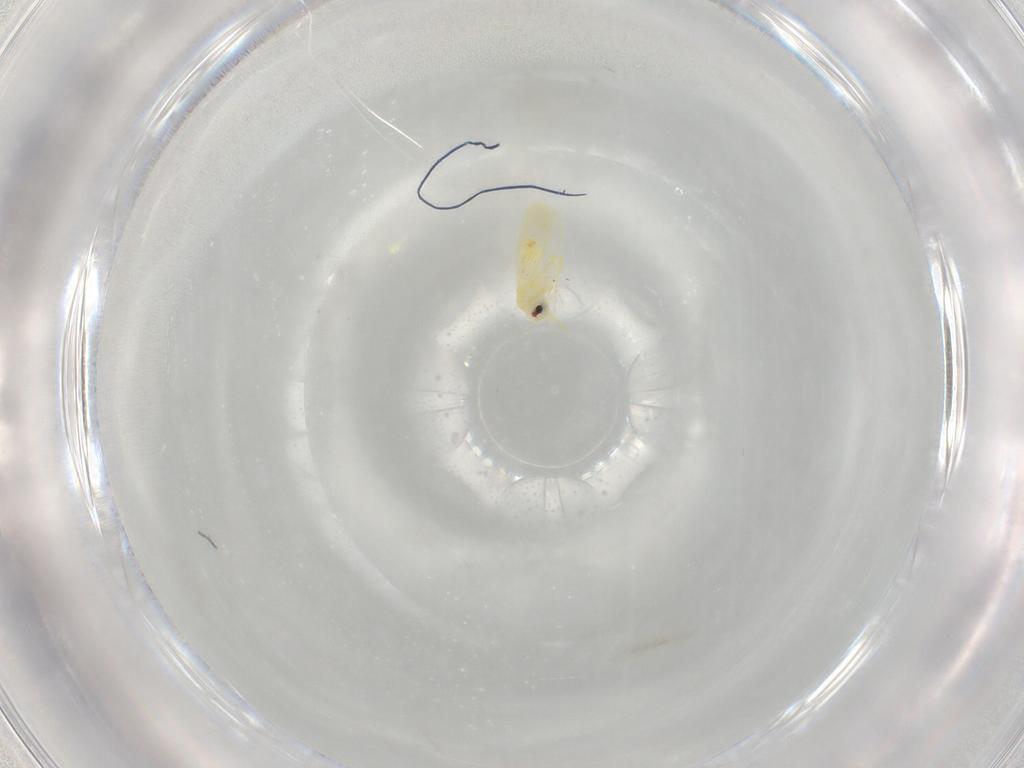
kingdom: Animalia
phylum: Arthropoda
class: Insecta
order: Hemiptera
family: Aleyrodidae
